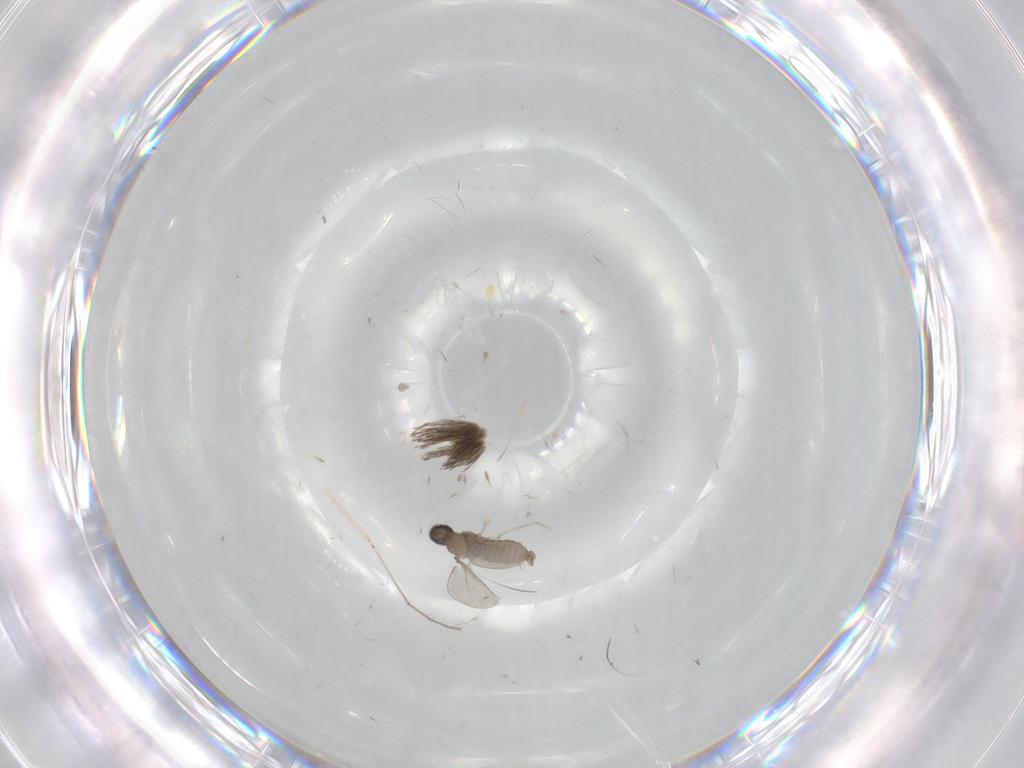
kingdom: Animalia
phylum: Arthropoda
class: Insecta
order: Diptera
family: Cecidomyiidae
